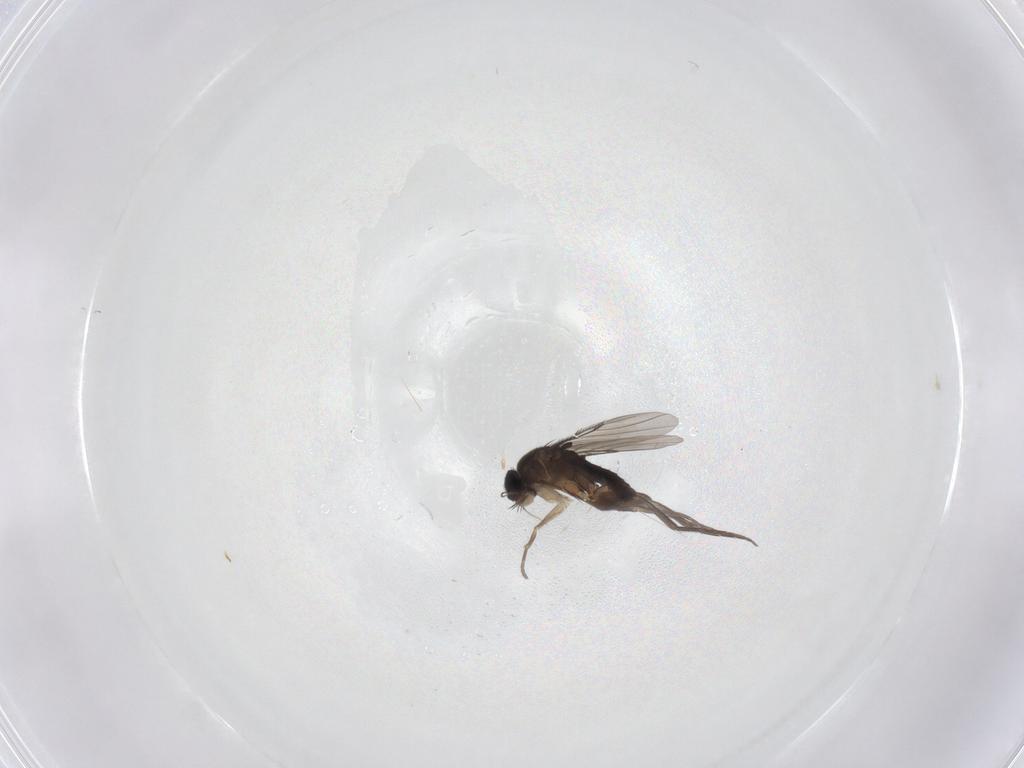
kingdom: Animalia
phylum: Arthropoda
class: Insecta
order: Diptera
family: Phoridae
